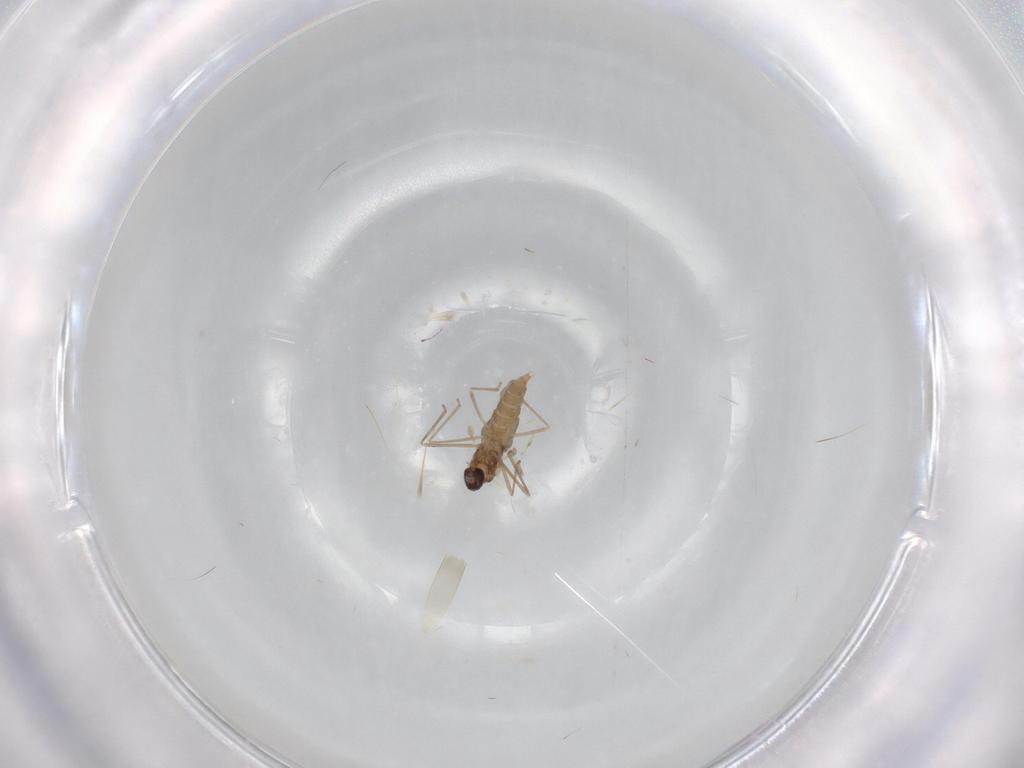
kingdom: Animalia
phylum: Arthropoda
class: Insecta
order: Diptera
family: Cecidomyiidae
